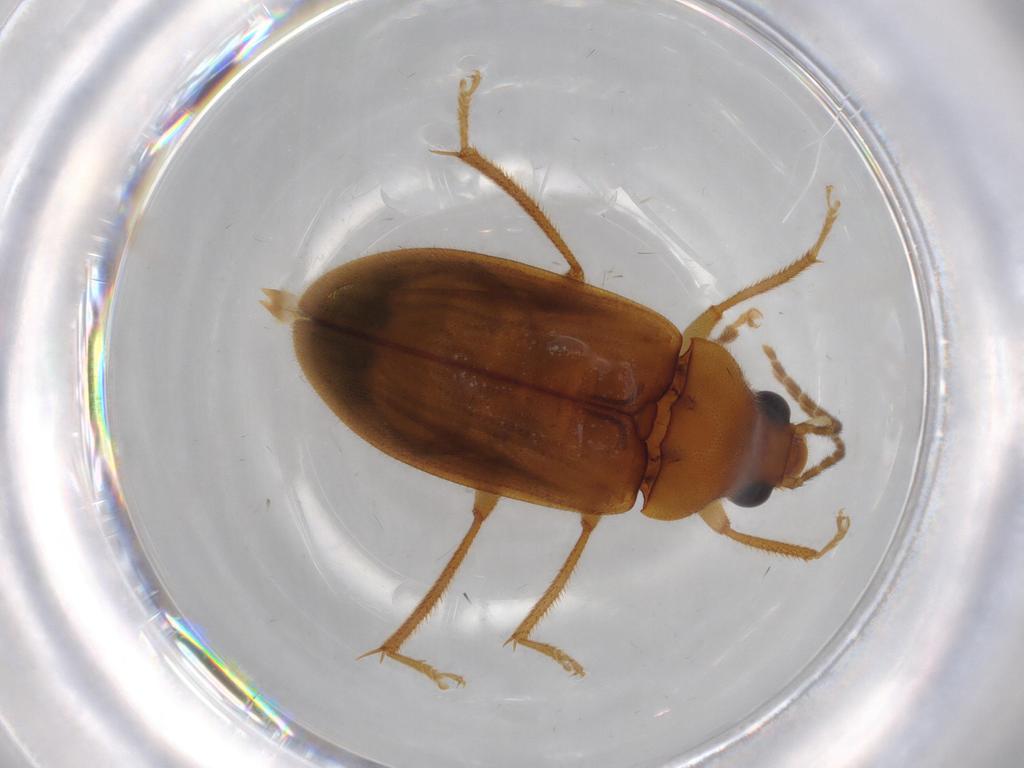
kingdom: Animalia
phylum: Arthropoda
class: Insecta
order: Coleoptera
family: Ptilodactylidae
